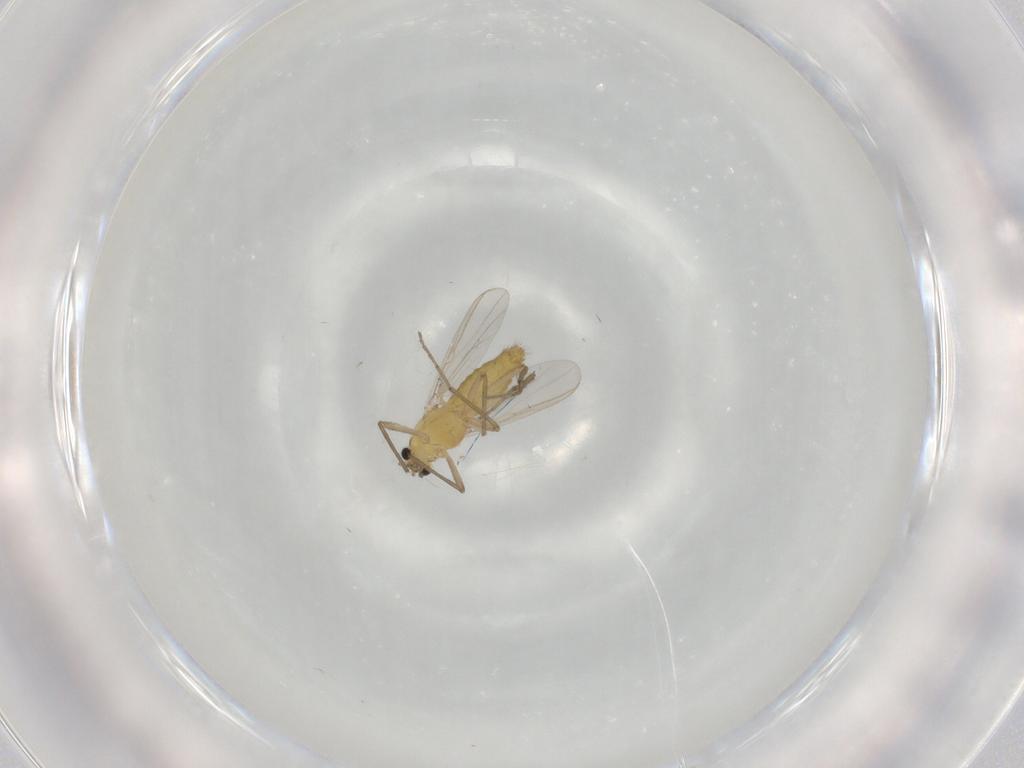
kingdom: Animalia
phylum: Arthropoda
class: Insecta
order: Diptera
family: Chironomidae
